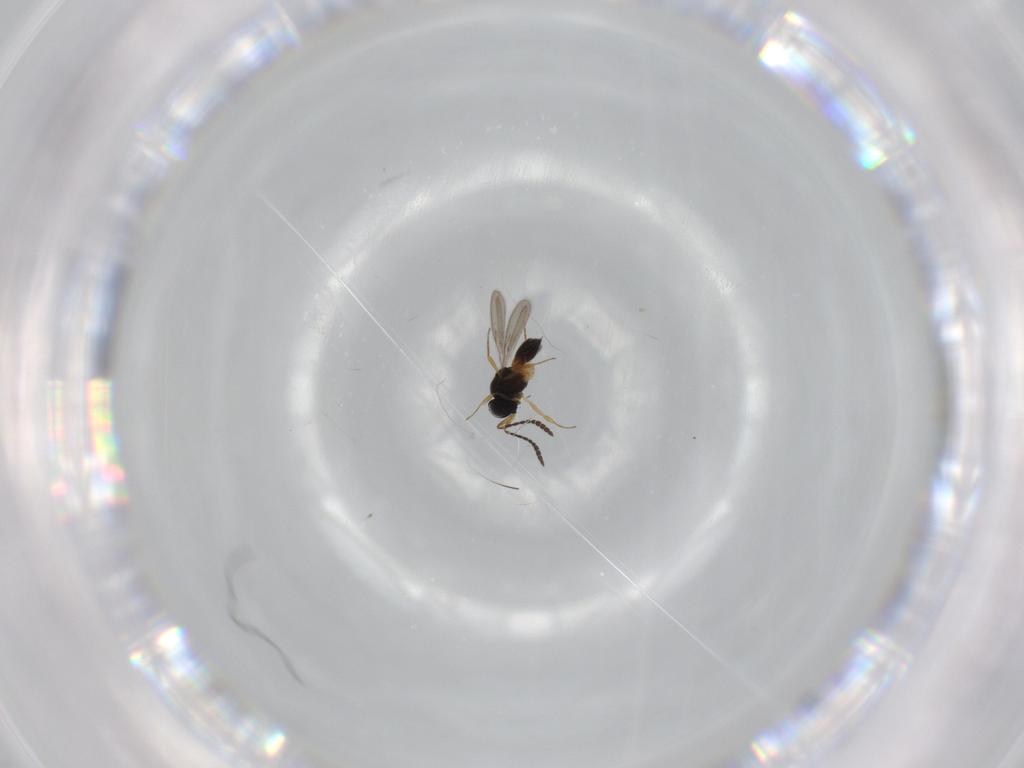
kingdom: Animalia
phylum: Arthropoda
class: Insecta
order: Hymenoptera
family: Scelionidae
